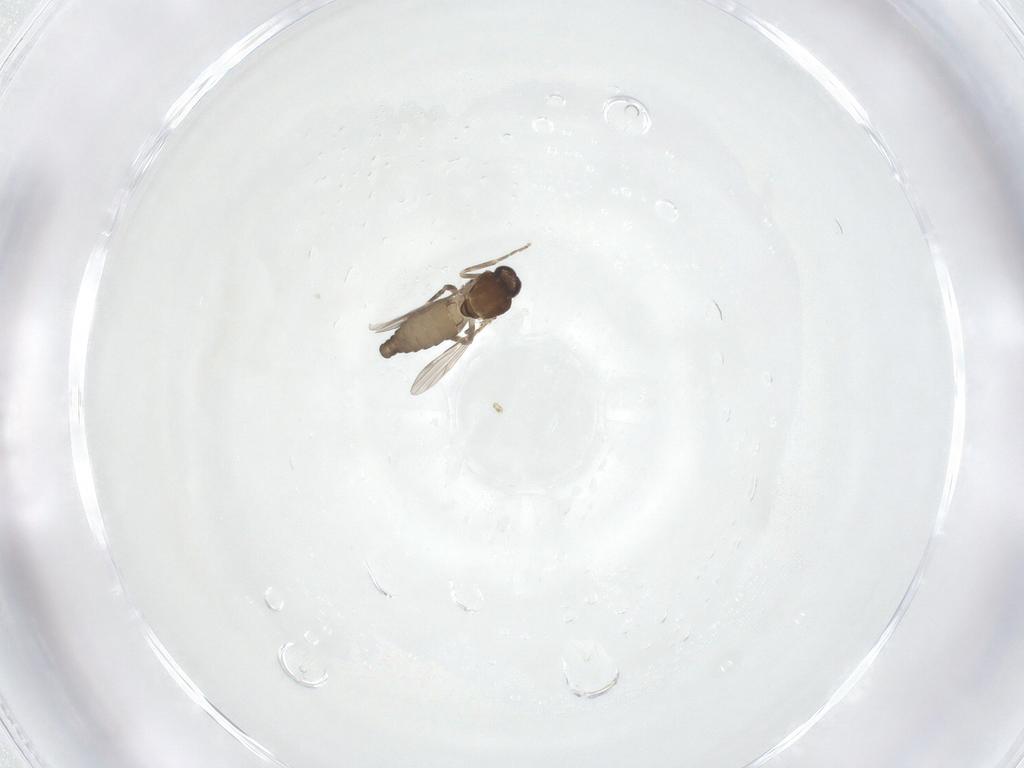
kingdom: Animalia
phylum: Arthropoda
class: Insecta
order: Diptera
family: Ceratopogonidae
